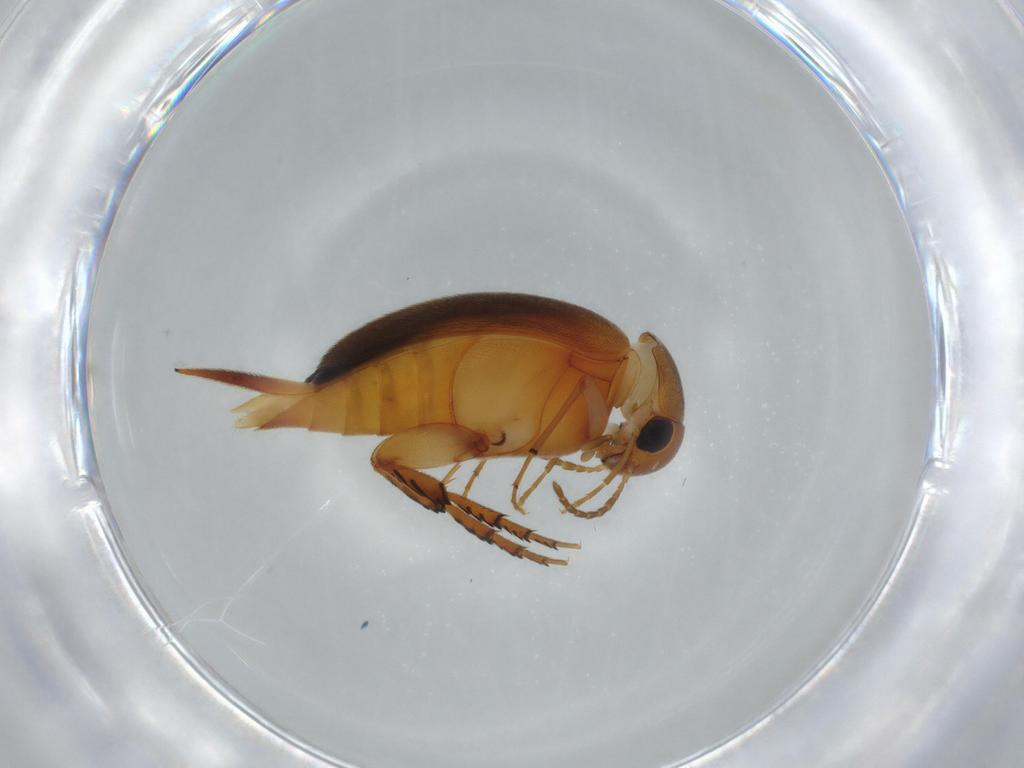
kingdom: Animalia
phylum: Arthropoda
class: Insecta
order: Coleoptera
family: Mordellidae
